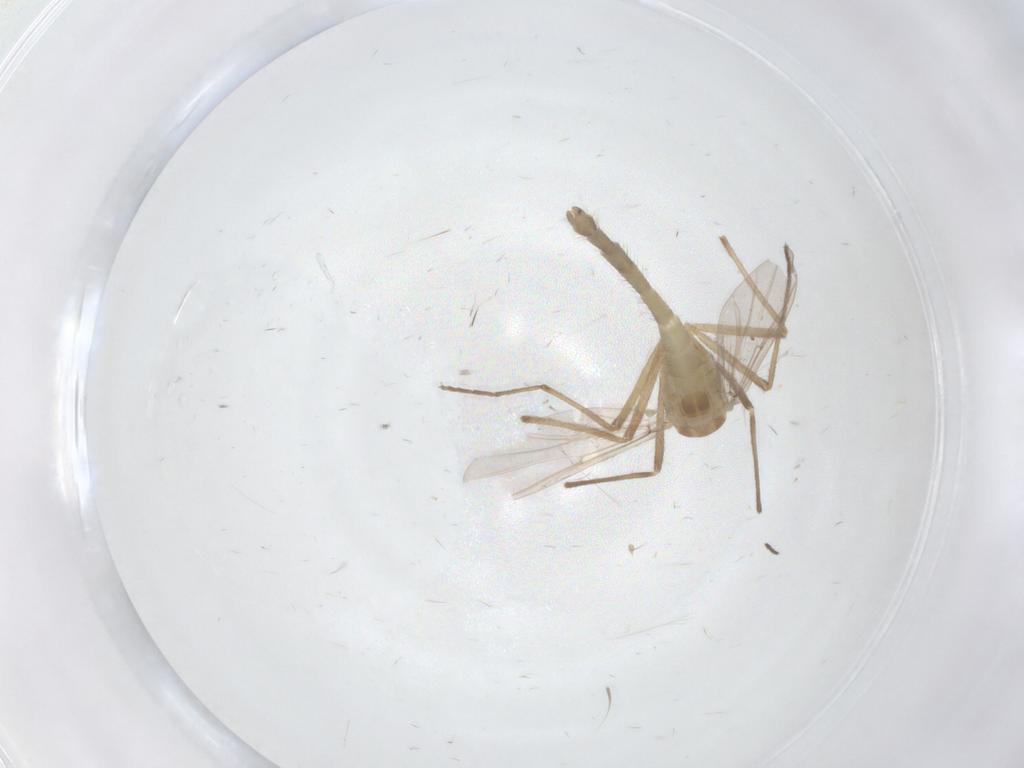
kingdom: Animalia
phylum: Arthropoda
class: Insecta
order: Diptera
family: Chironomidae
